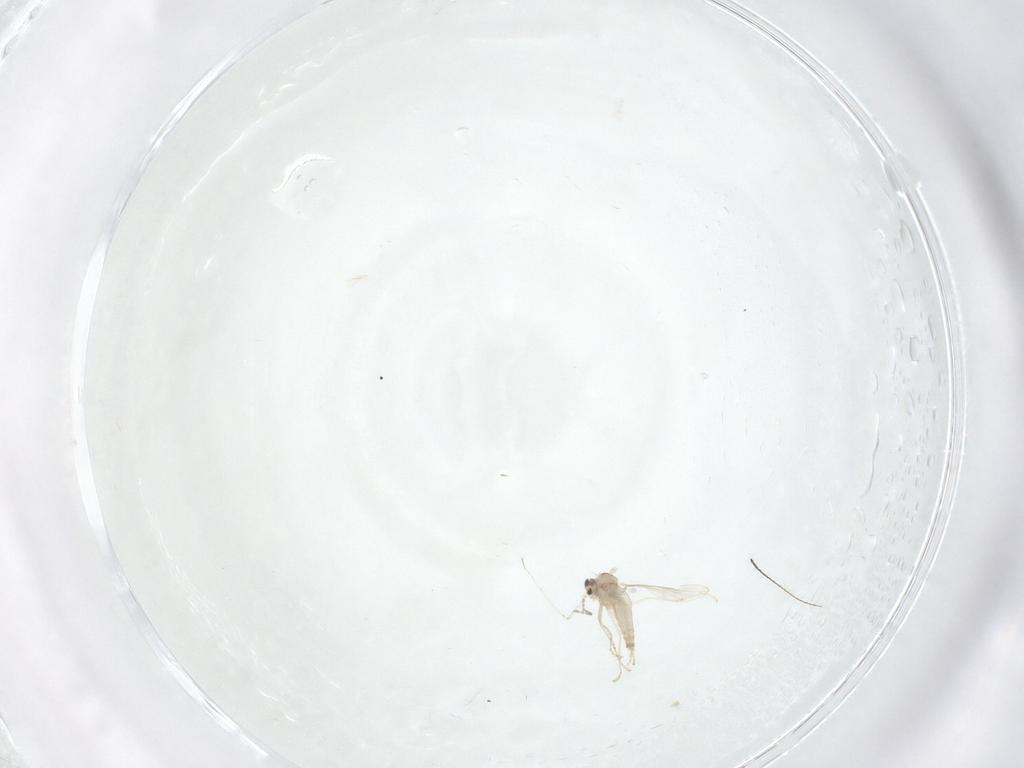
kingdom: Animalia
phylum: Arthropoda
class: Insecta
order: Diptera
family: Cecidomyiidae
